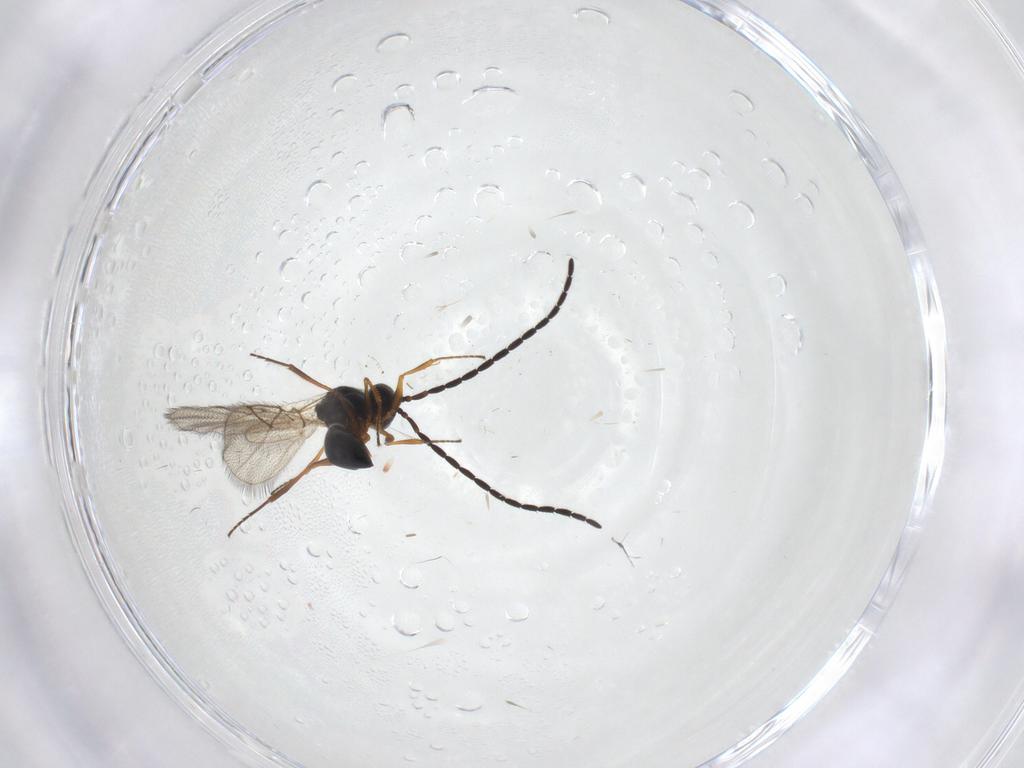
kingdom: Animalia
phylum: Arthropoda
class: Insecta
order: Hymenoptera
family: Figitidae
